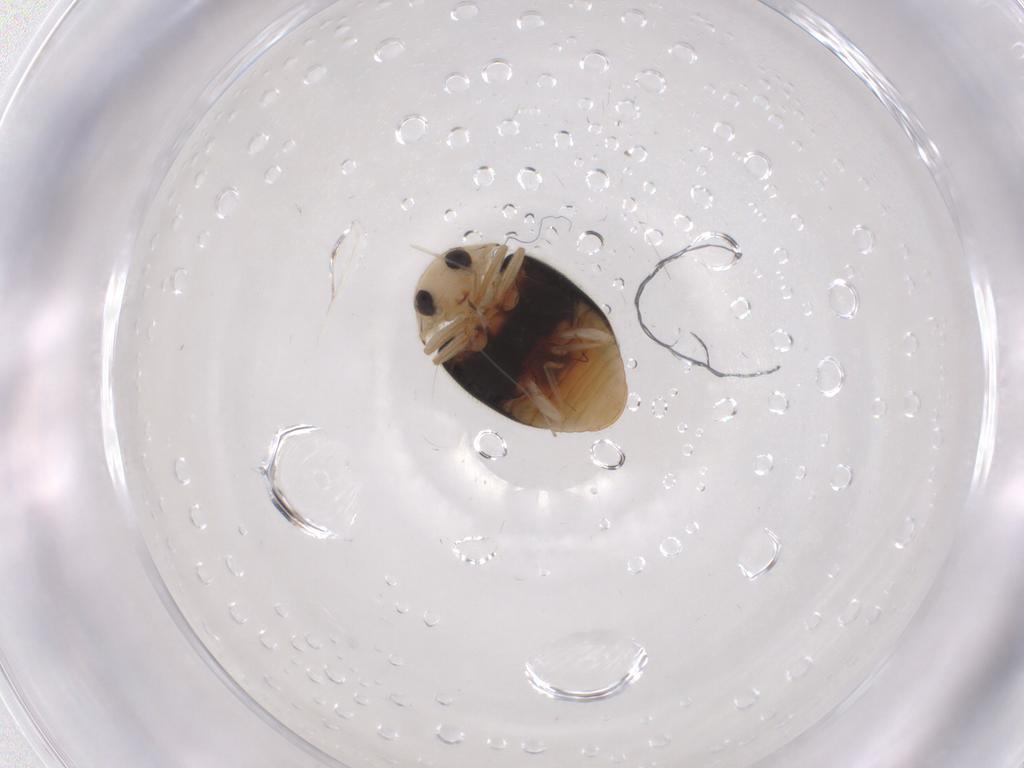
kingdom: Animalia
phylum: Arthropoda
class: Insecta
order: Coleoptera
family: Coccinellidae
